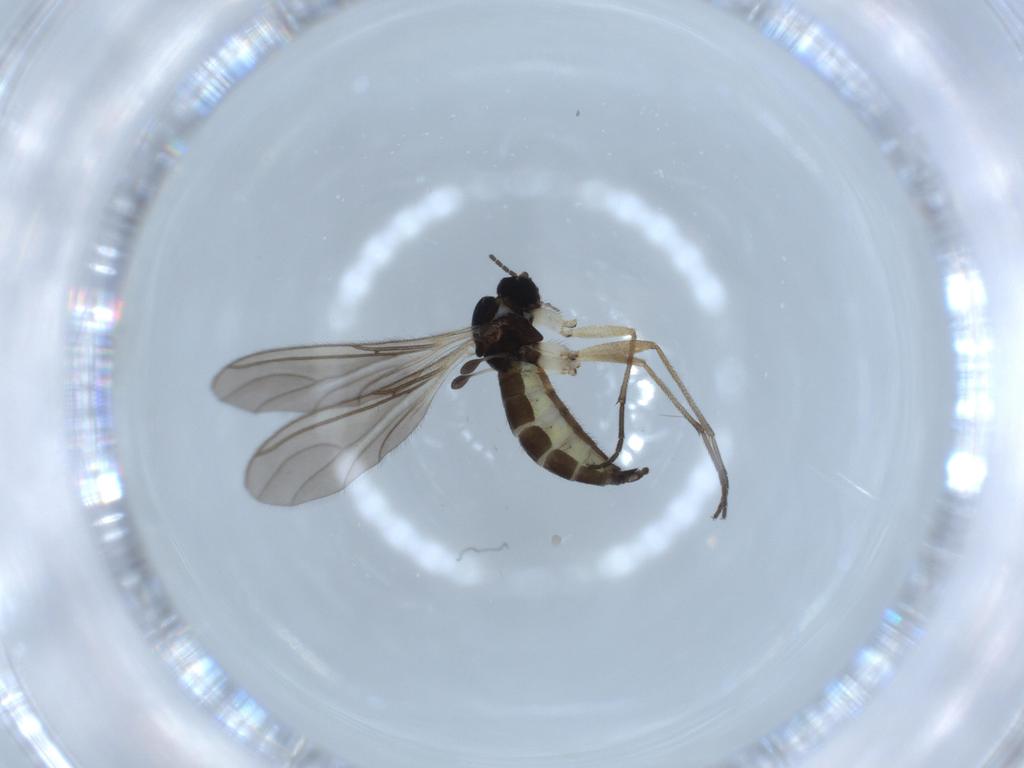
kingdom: Animalia
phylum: Arthropoda
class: Insecta
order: Diptera
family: Sciaridae
